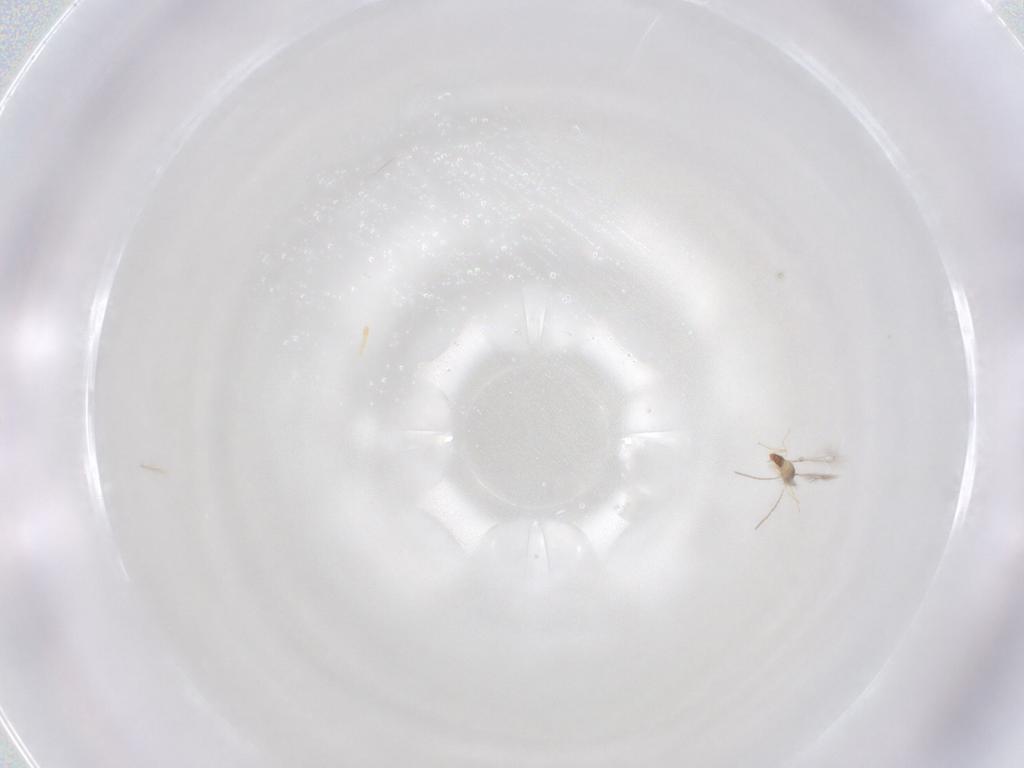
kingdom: Animalia
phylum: Arthropoda
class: Insecta
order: Hymenoptera
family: Mymaridae
